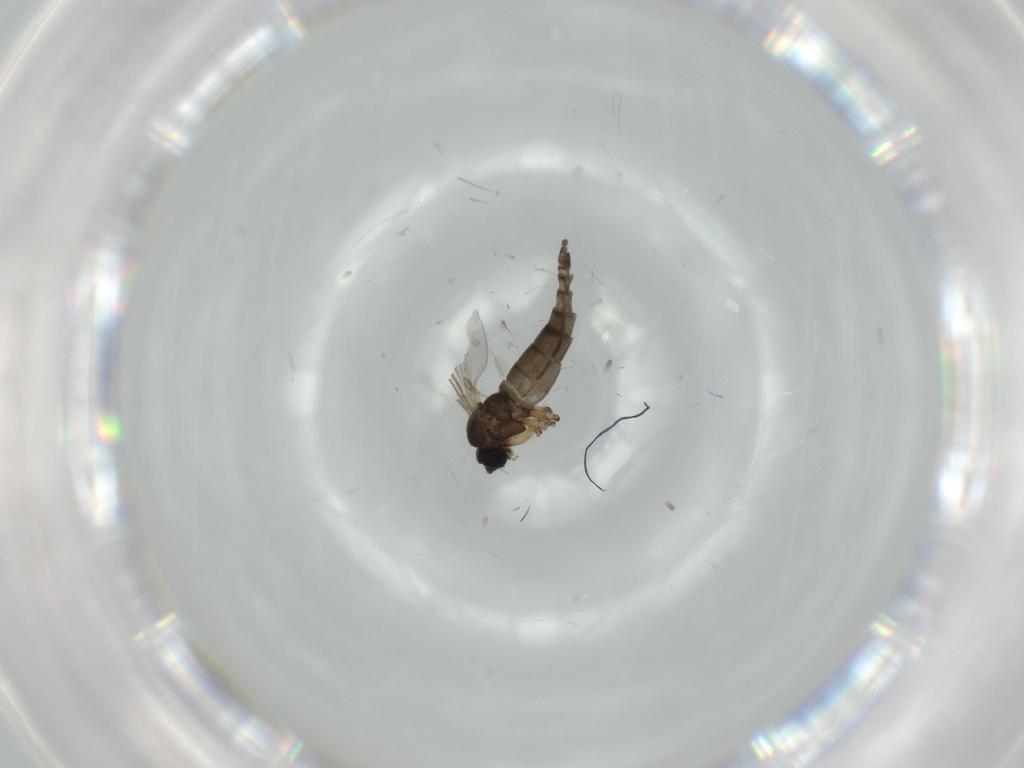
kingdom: Animalia
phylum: Arthropoda
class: Insecta
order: Diptera
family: Sciaridae
